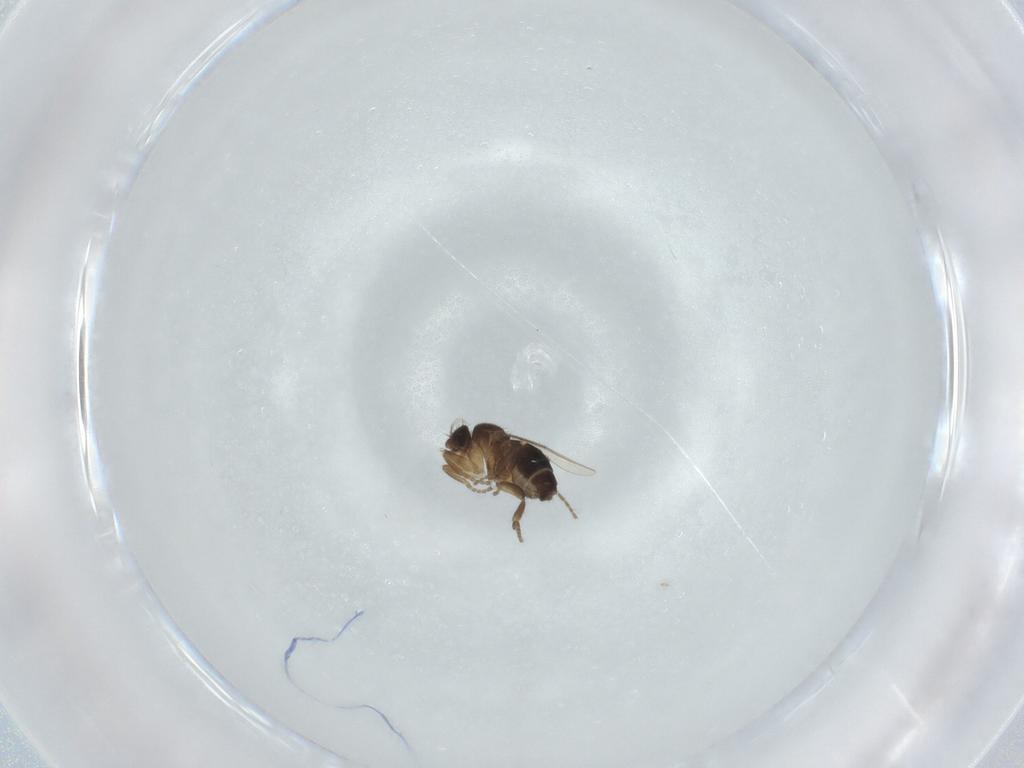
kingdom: Animalia
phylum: Arthropoda
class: Insecta
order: Diptera
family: Phoridae
